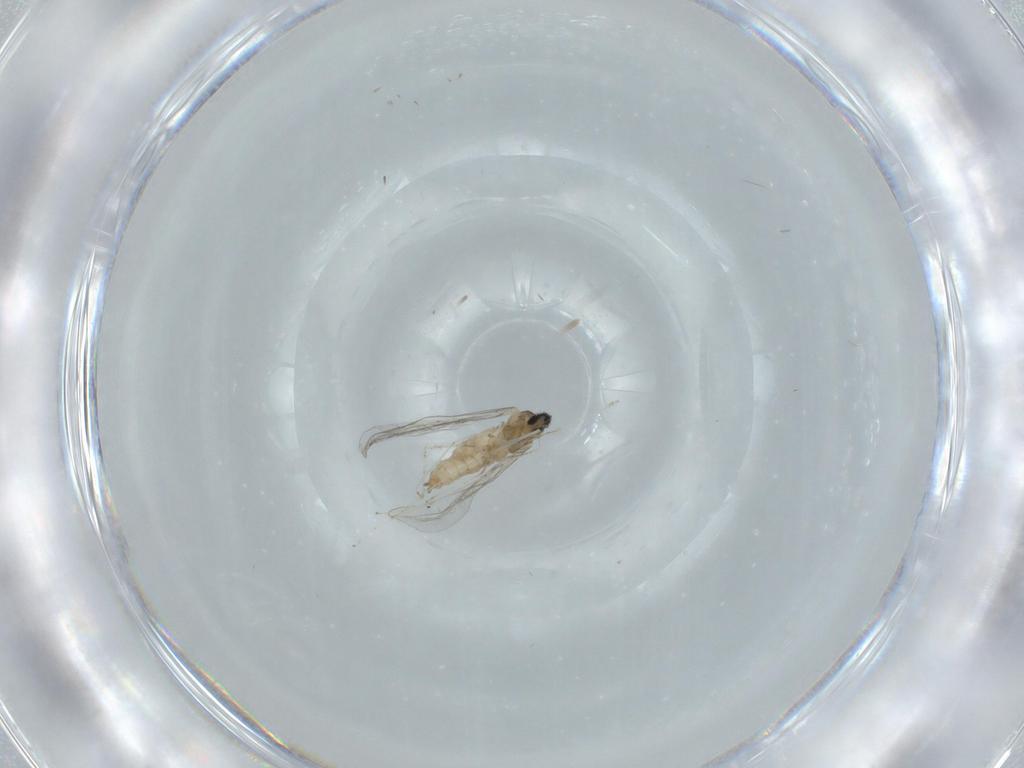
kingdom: Animalia
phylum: Arthropoda
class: Insecta
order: Diptera
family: Cecidomyiidae
